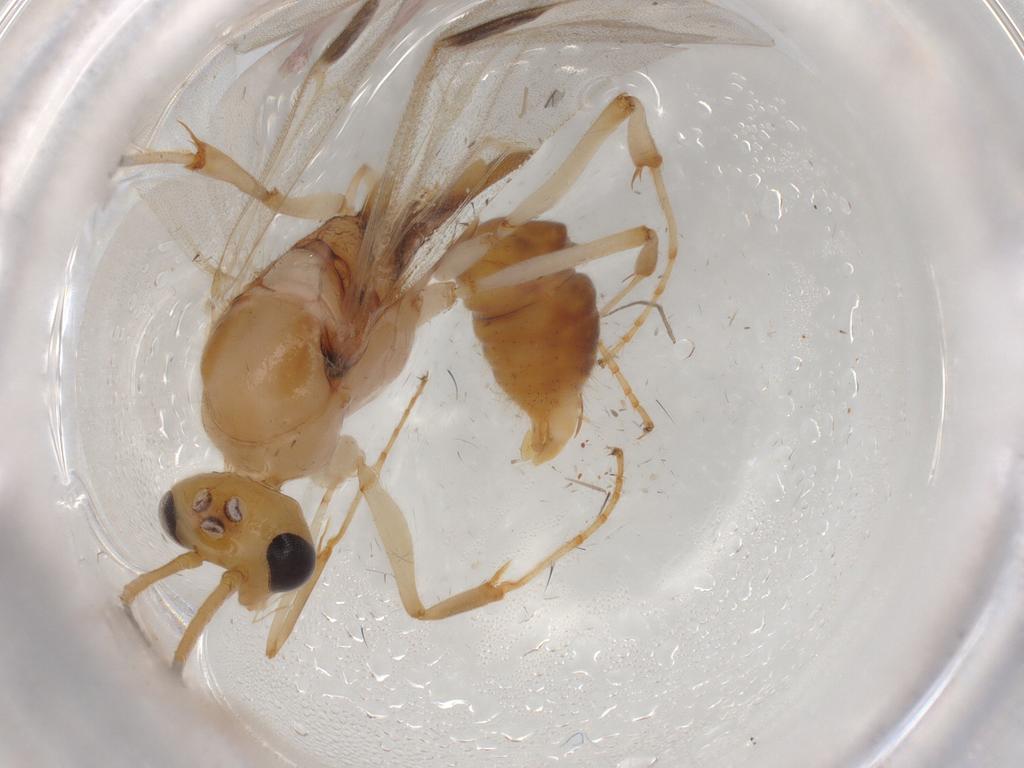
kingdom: Animalia
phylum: Arthropoda
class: Insecta
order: Hymenoptera
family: Formicidae
